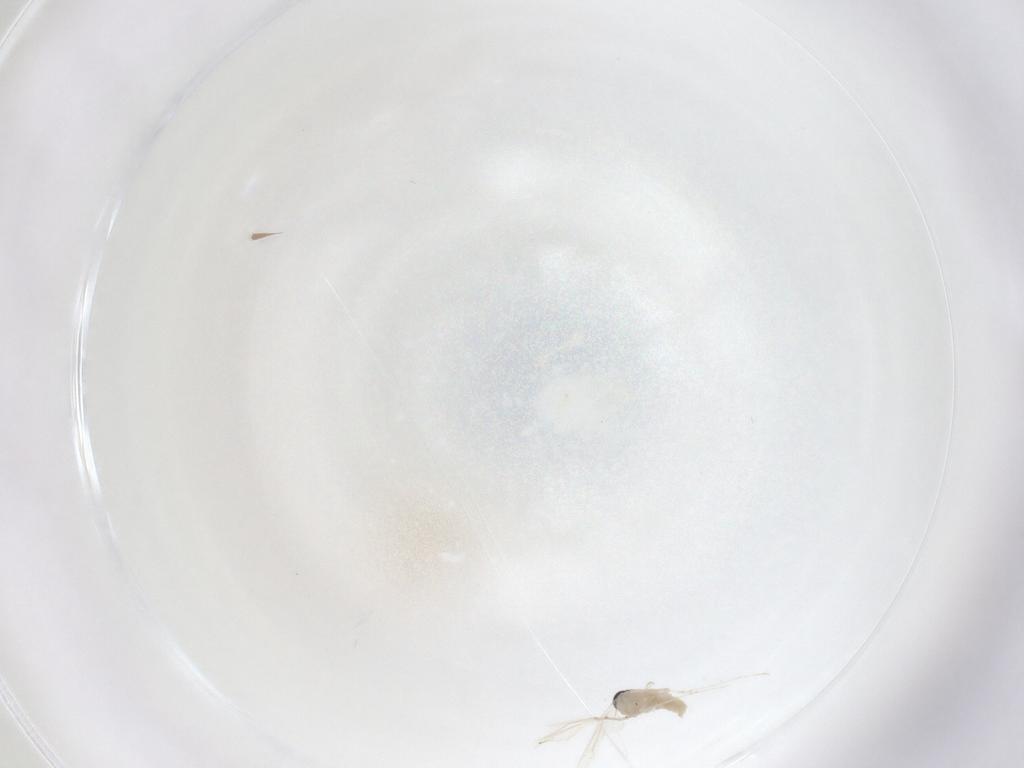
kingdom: Animalia
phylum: Arthropoda
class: Insecta
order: Diptera
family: Cecidomyiidae
